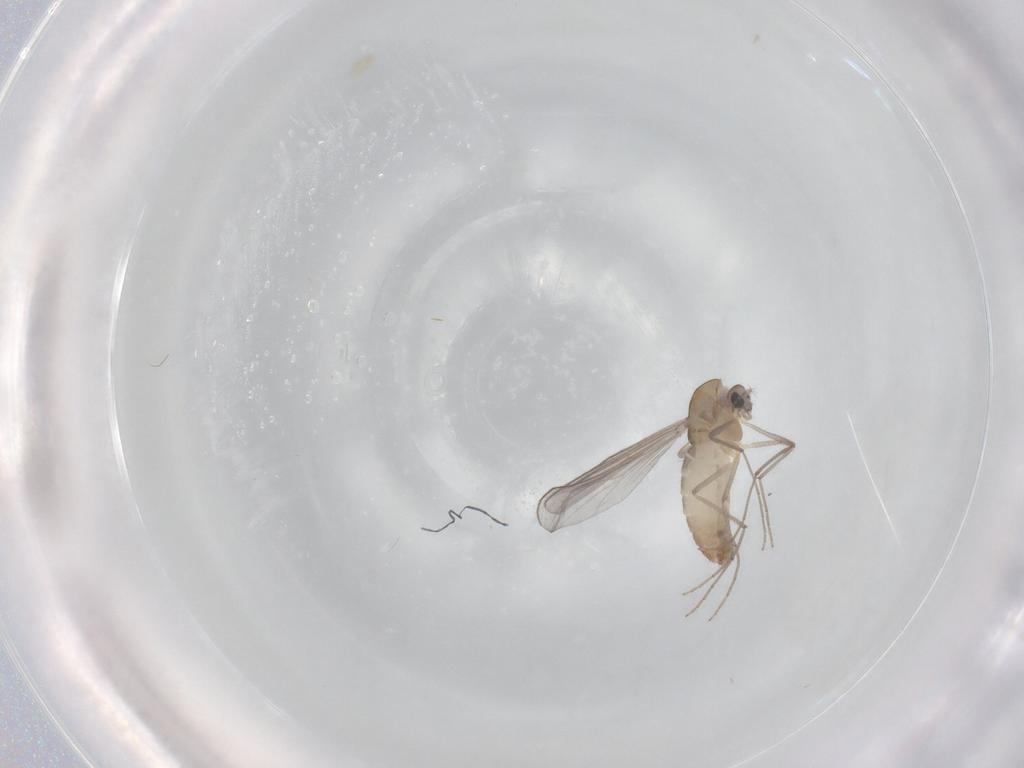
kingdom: Animalia
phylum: Arthropoda
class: Insecta
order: Diptera
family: Chironomidae
